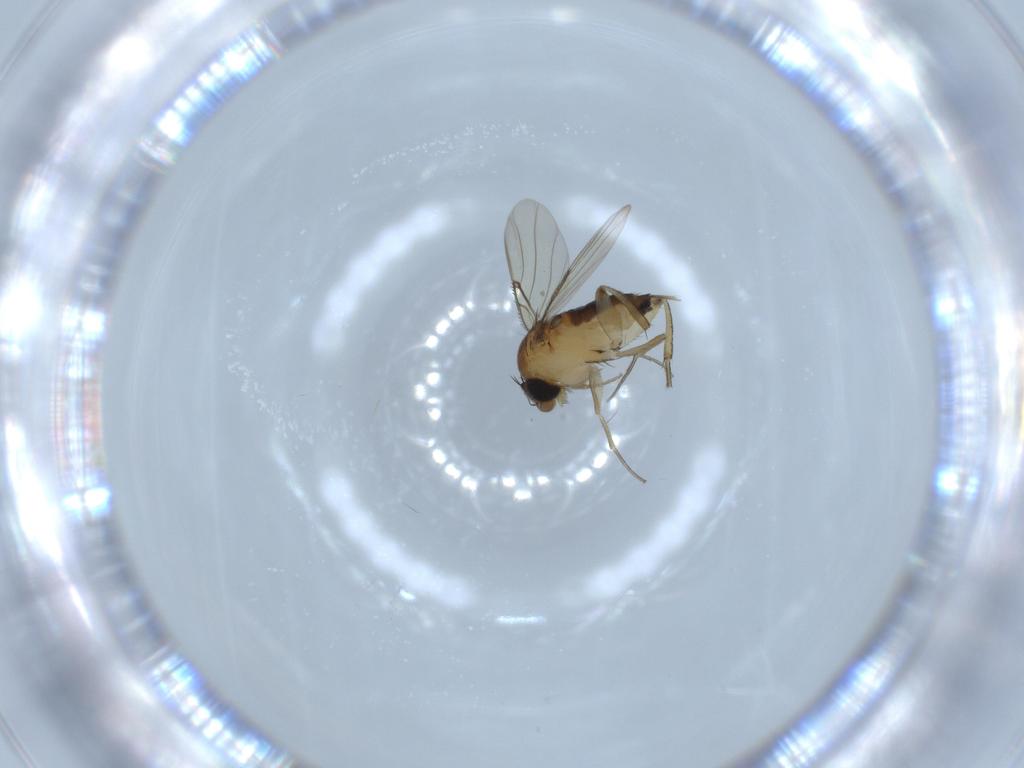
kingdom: Animalia
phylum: Arthropoda
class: Insecta
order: Diptera
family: Phoridae
